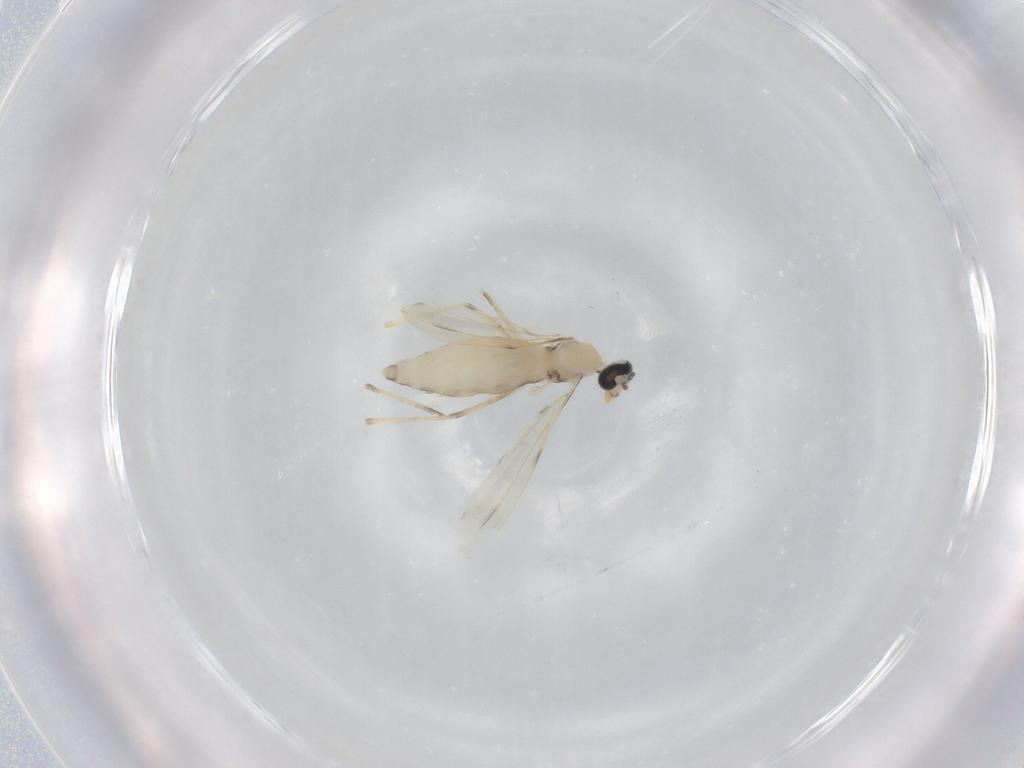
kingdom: Animalia
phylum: Arthropoda
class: Insecta
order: Diptera
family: Cecidomyiidae
